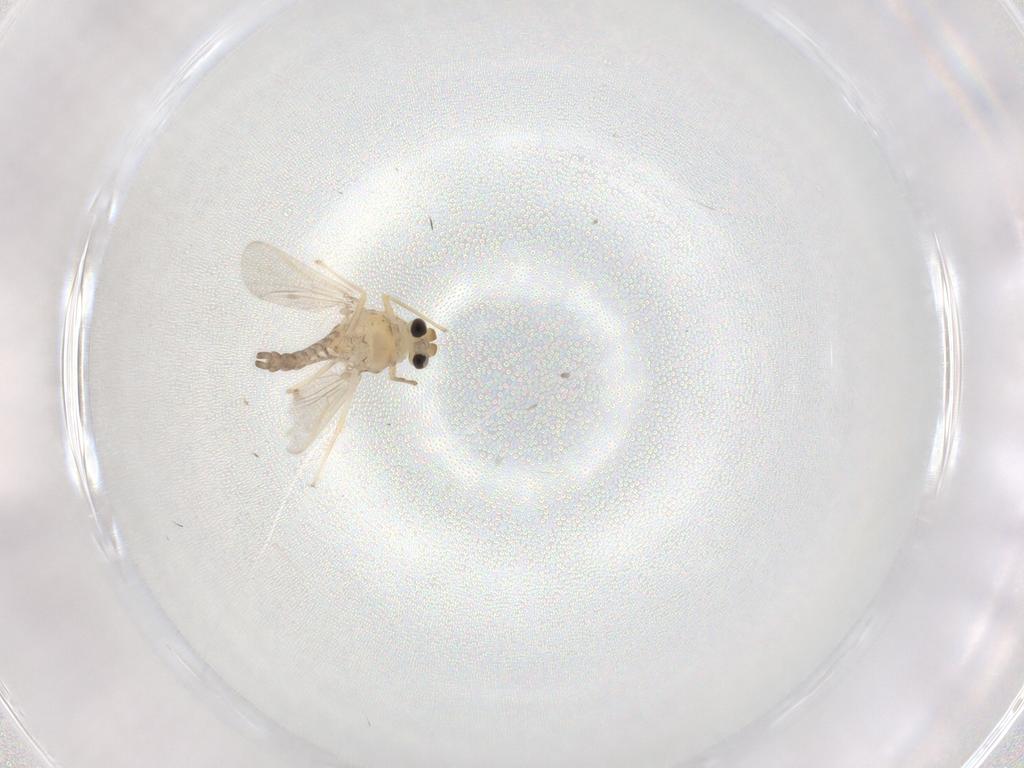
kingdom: Animalia
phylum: Arthropoda
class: Insecta
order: Diptera
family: Chironomidae
